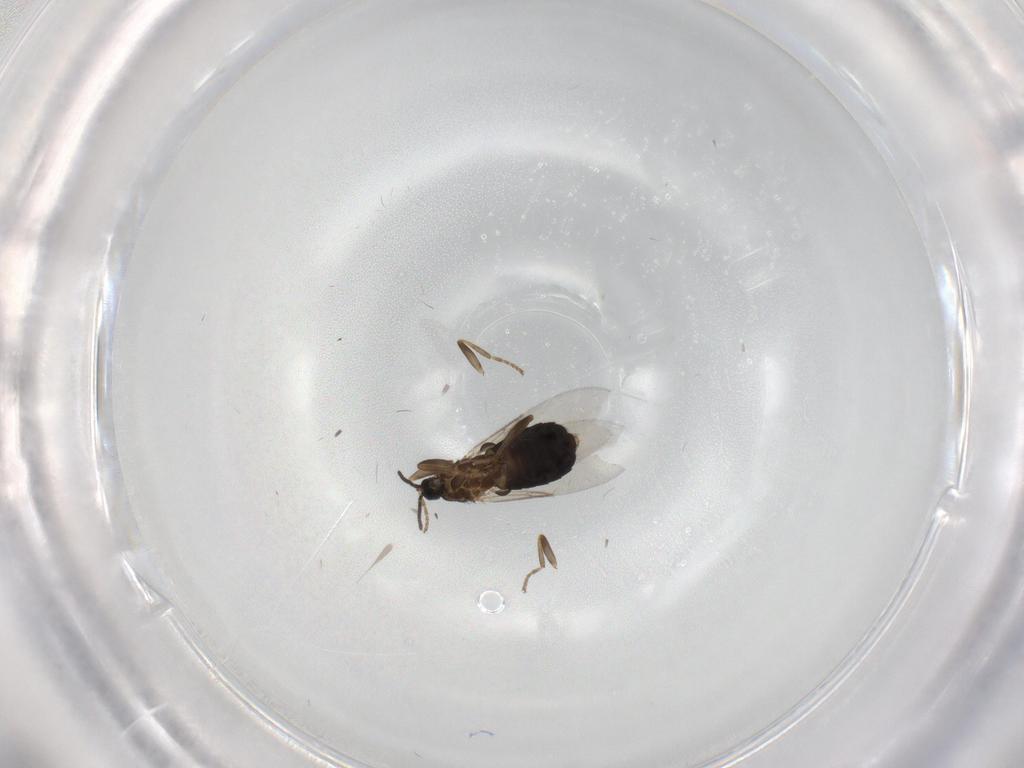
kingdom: Animalia
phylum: Arthropoda
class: Insecta
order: Diptera
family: Scatopsidae
